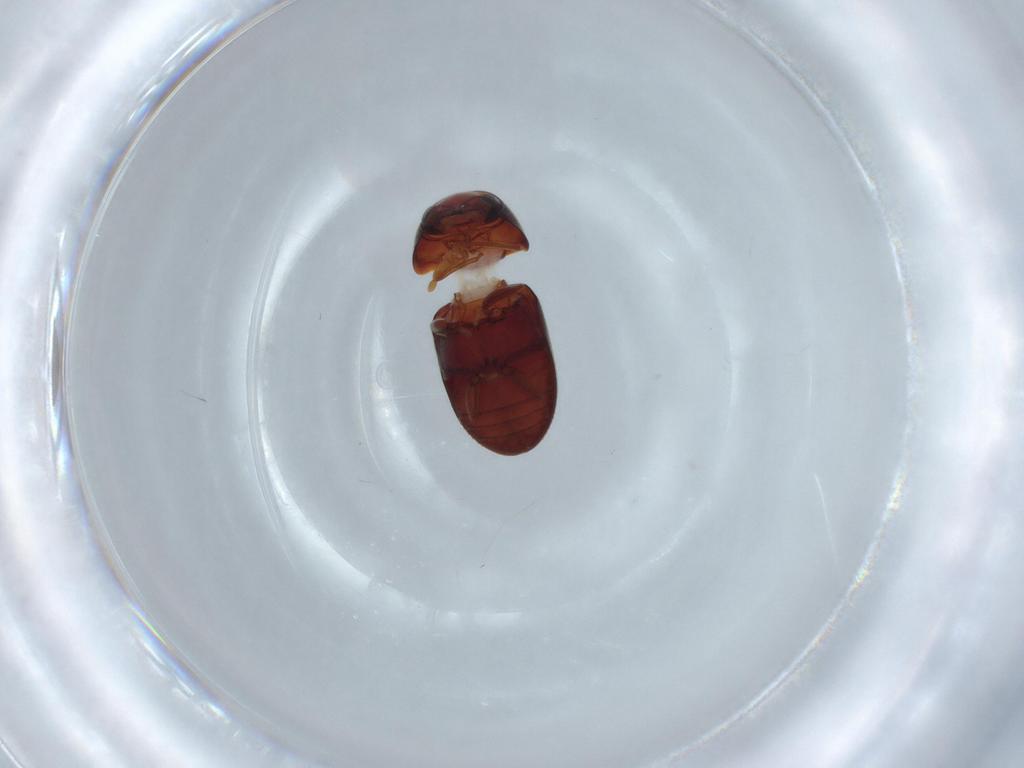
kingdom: Animalia
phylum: Arthropoda
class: Insecta
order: Coleoptera
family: Ptinidae
